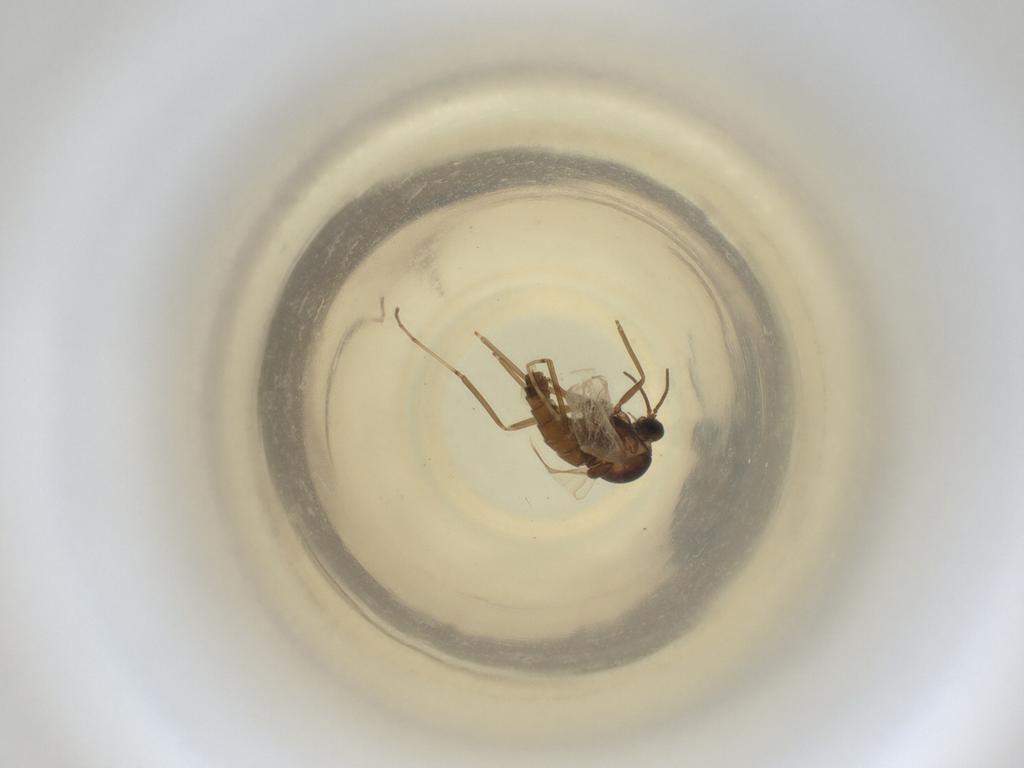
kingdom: Animalia
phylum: Arthropoda
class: Insecta
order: Diptera
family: Cecidomyiidae
